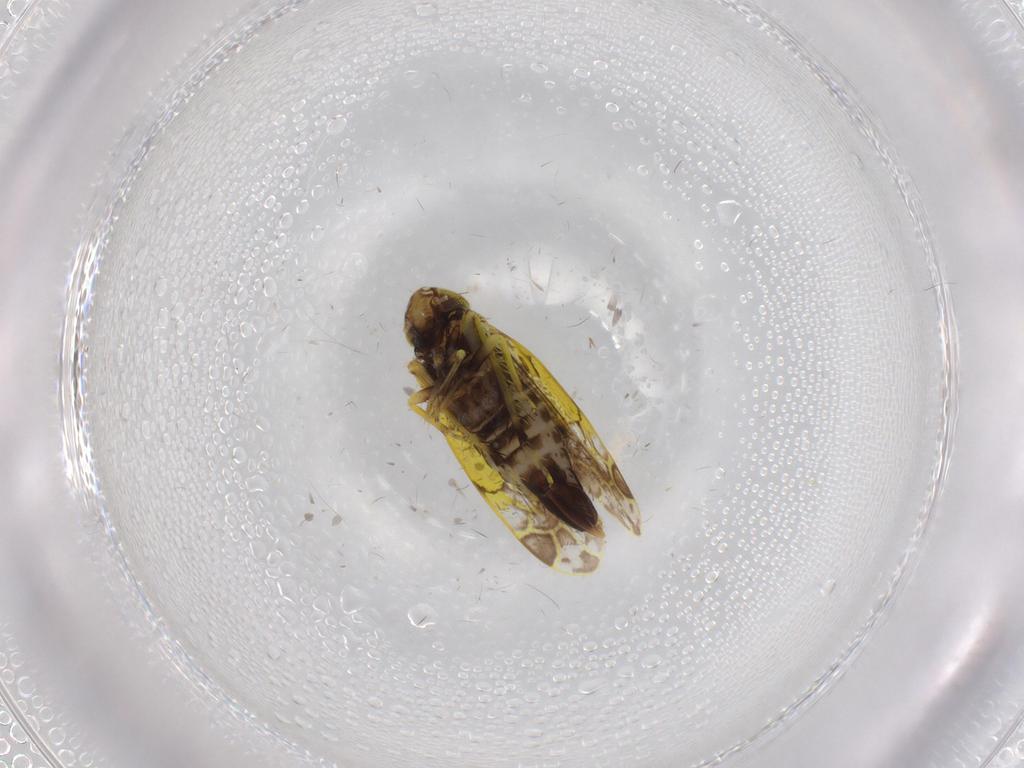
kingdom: Animalia
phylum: Arthropoda
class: Insecta
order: Hemiptera
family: Cicadellidae
